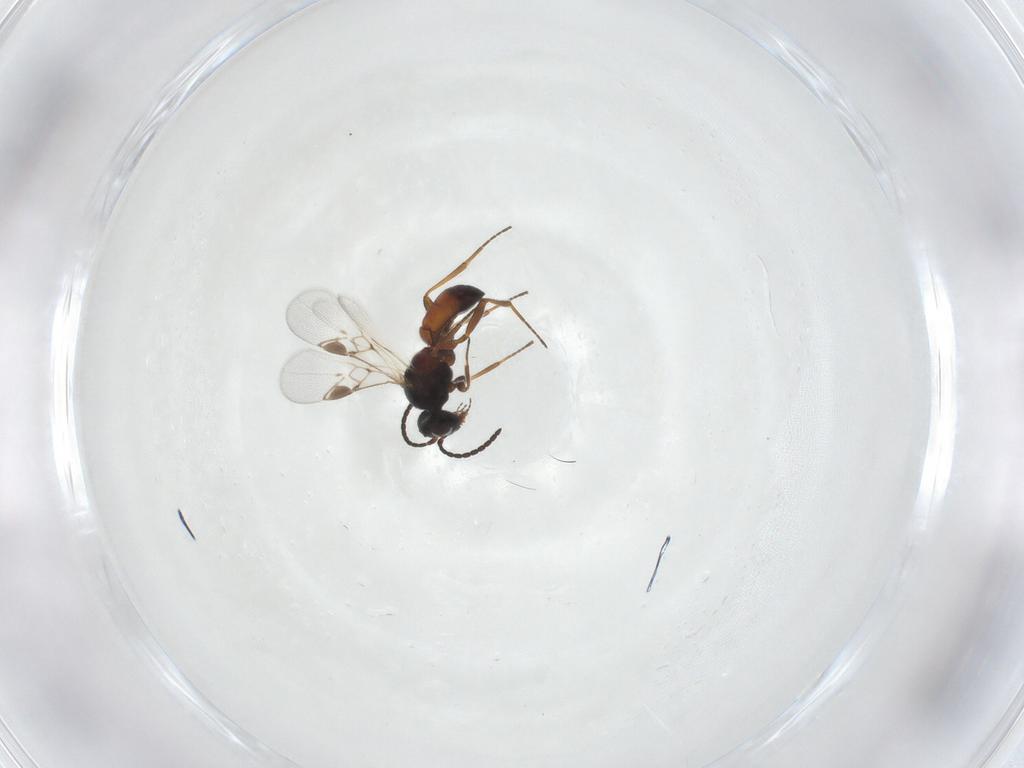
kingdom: Animalia
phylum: Arthropoda
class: Insecta
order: Hymenoptera
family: Braconidae
